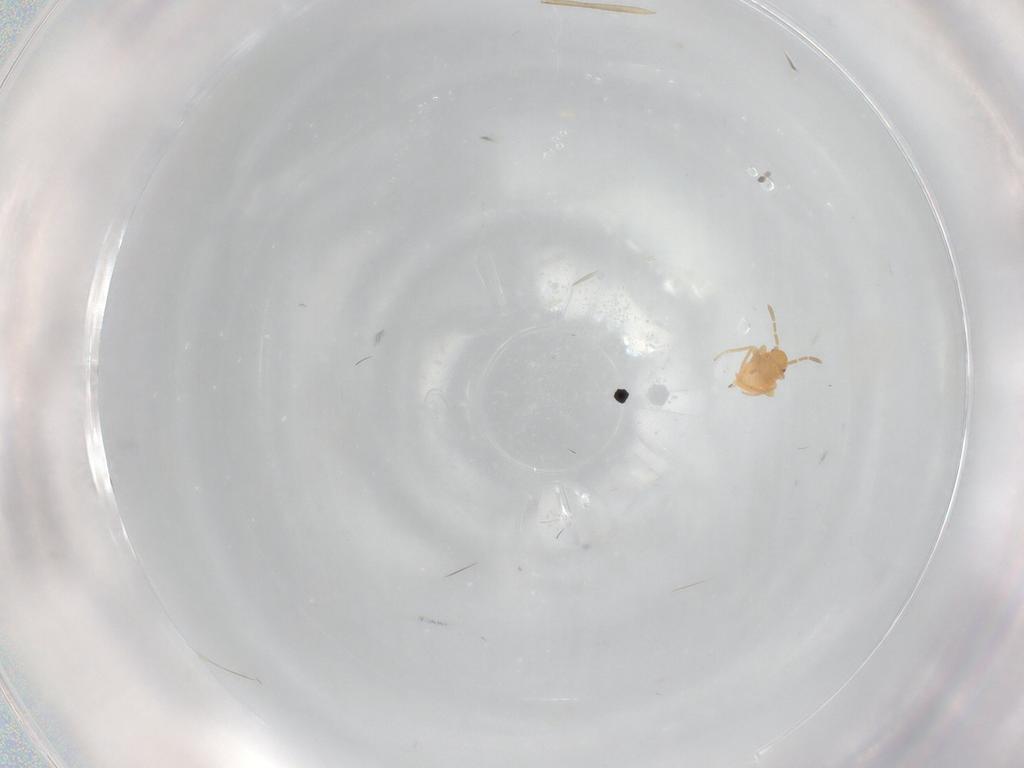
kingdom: Animalia
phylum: Arthropoda
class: Insecta
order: Hemiptera
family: Miridae
